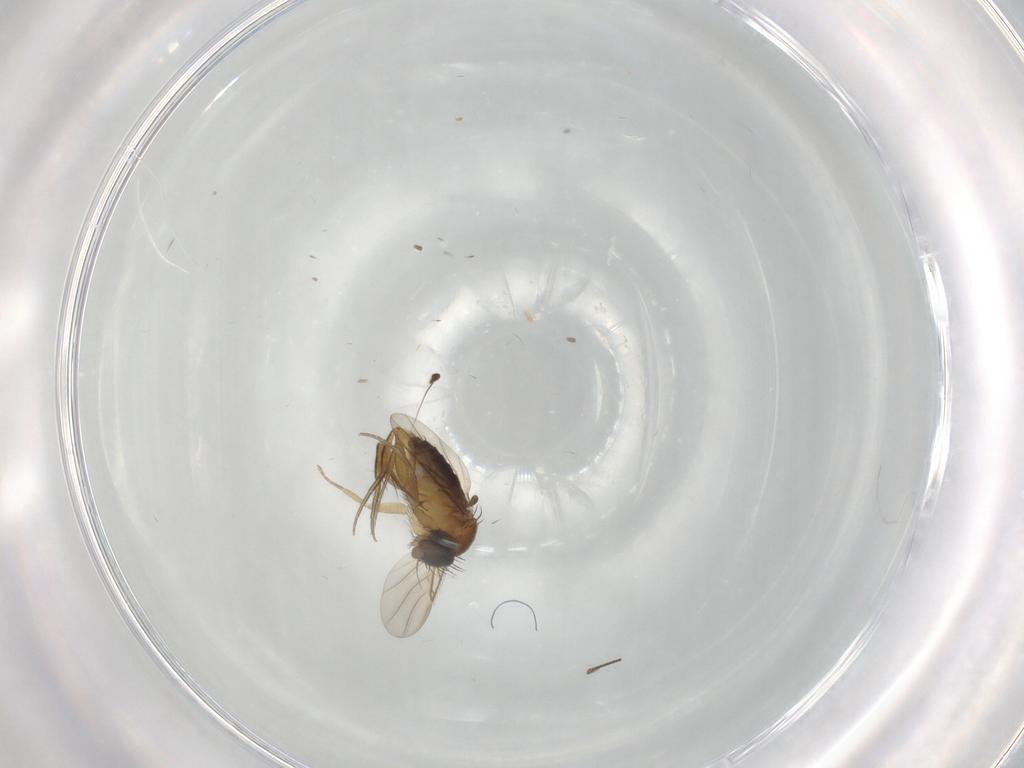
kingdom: Animalia
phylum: Arthropoda
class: Insecta
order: Diptera
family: Phoridae
